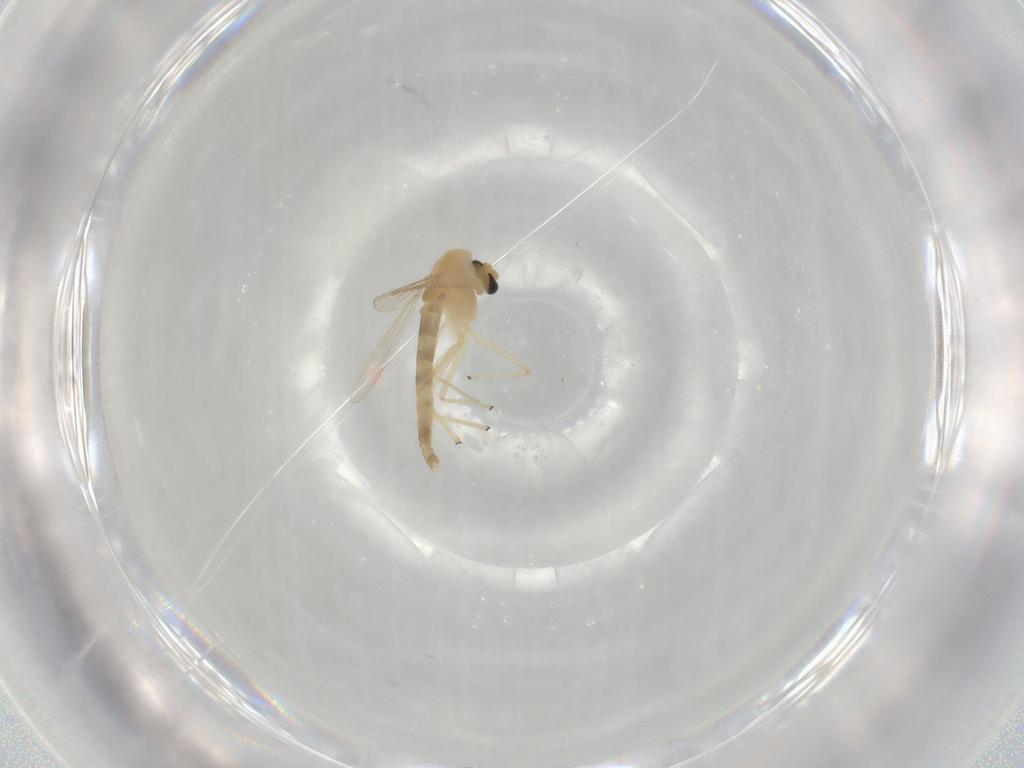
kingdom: Animalia
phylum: Arthropoda
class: Insecta
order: Diptera
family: Chironomidae
